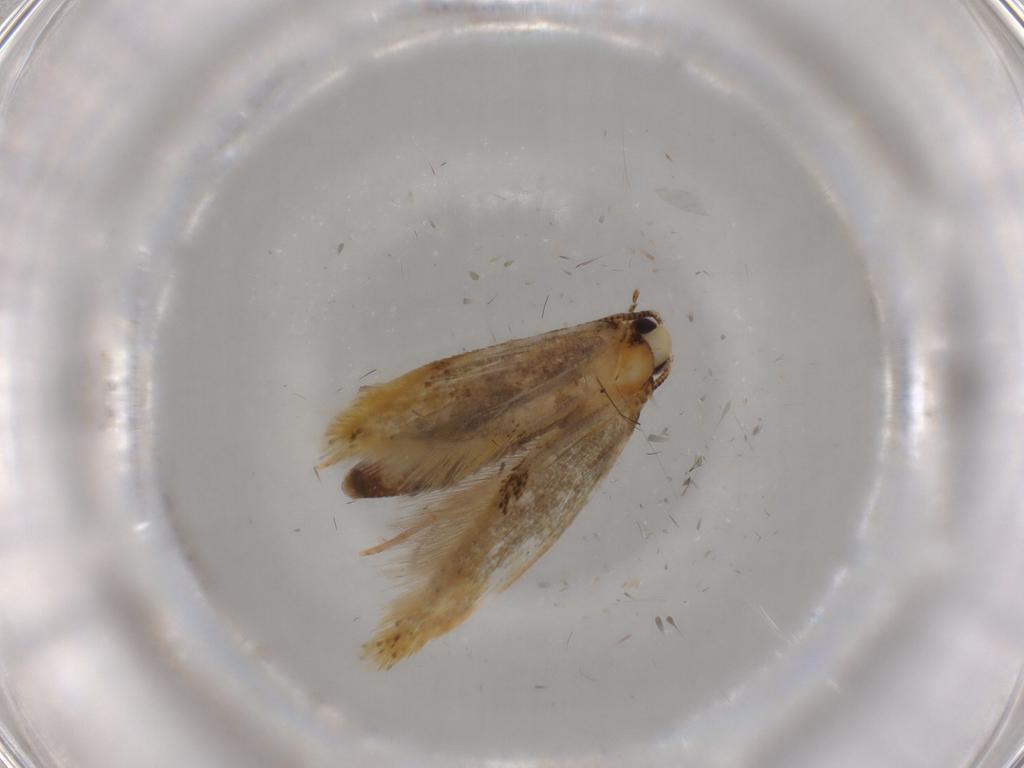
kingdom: Animalia
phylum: Arthropoda
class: Insecta
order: Lepidoptera
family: Tineidae
